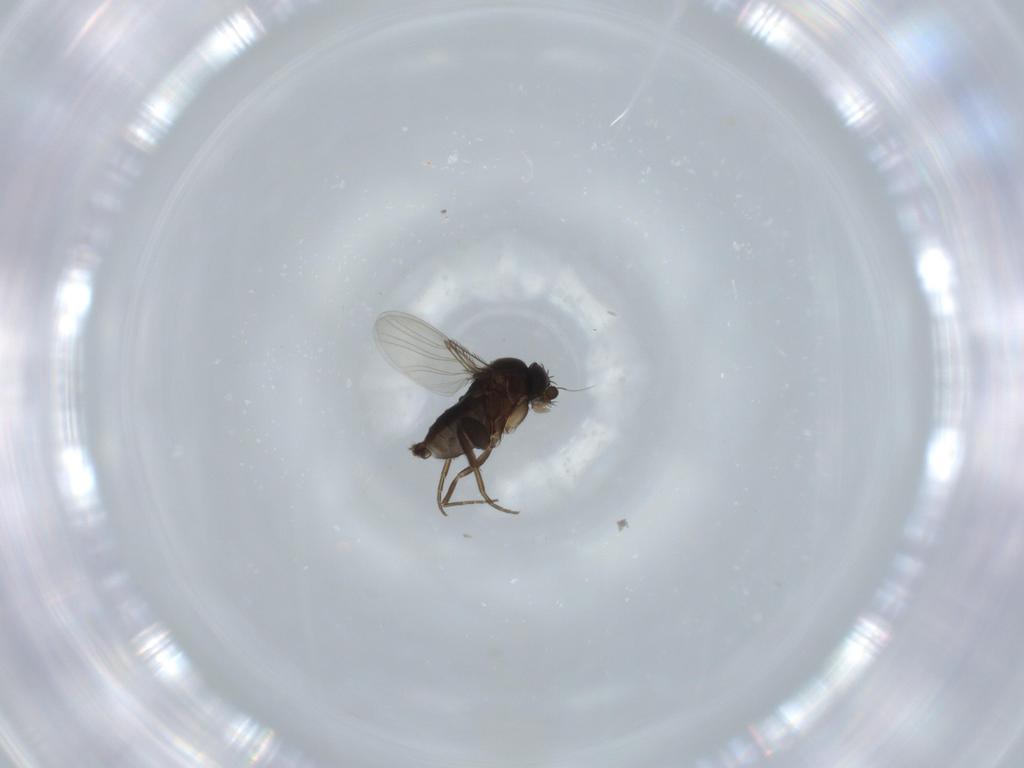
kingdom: Animalia
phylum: Arthropoda
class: Insecta
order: Diptera
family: Phoridae
